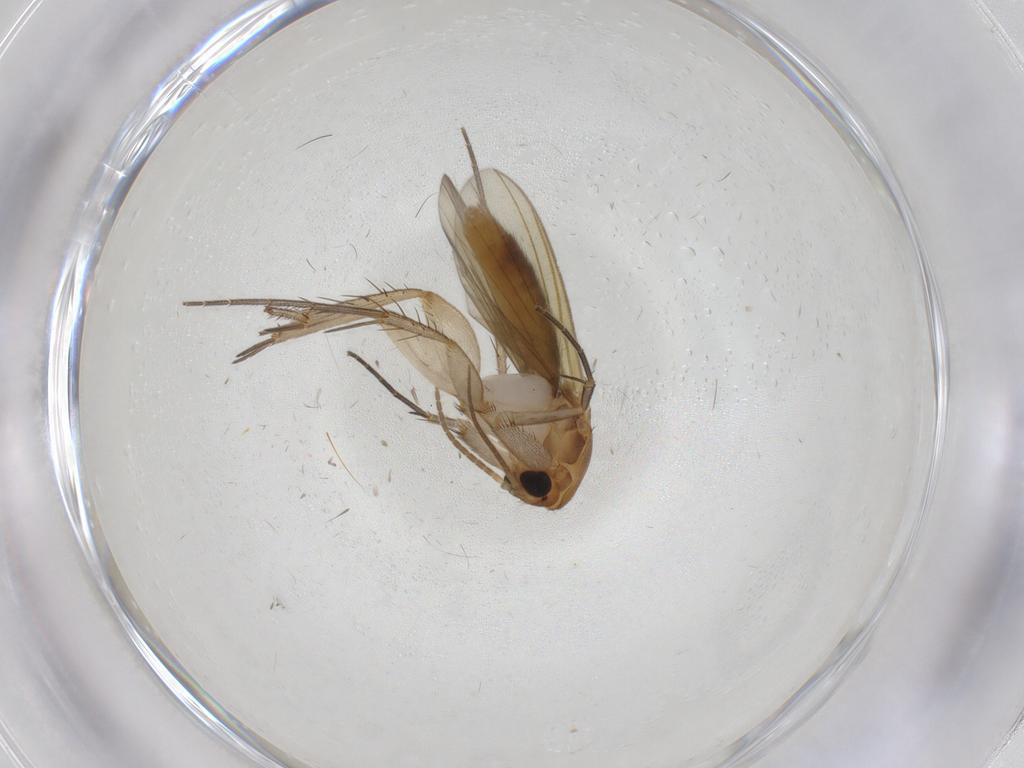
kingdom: Animalia
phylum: Arthropoda
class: Insecta
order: Diptera
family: Mycetophilidae
